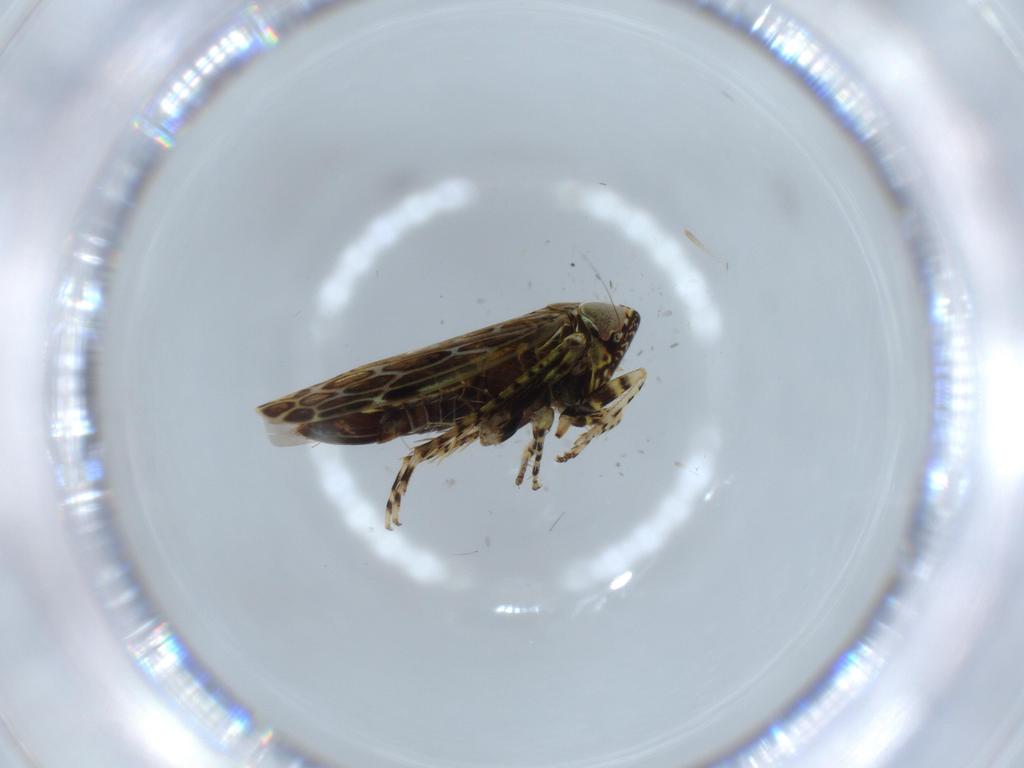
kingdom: Animalia
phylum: Arthropoda
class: Insecta
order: Hemiptera
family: Cicadellidae
